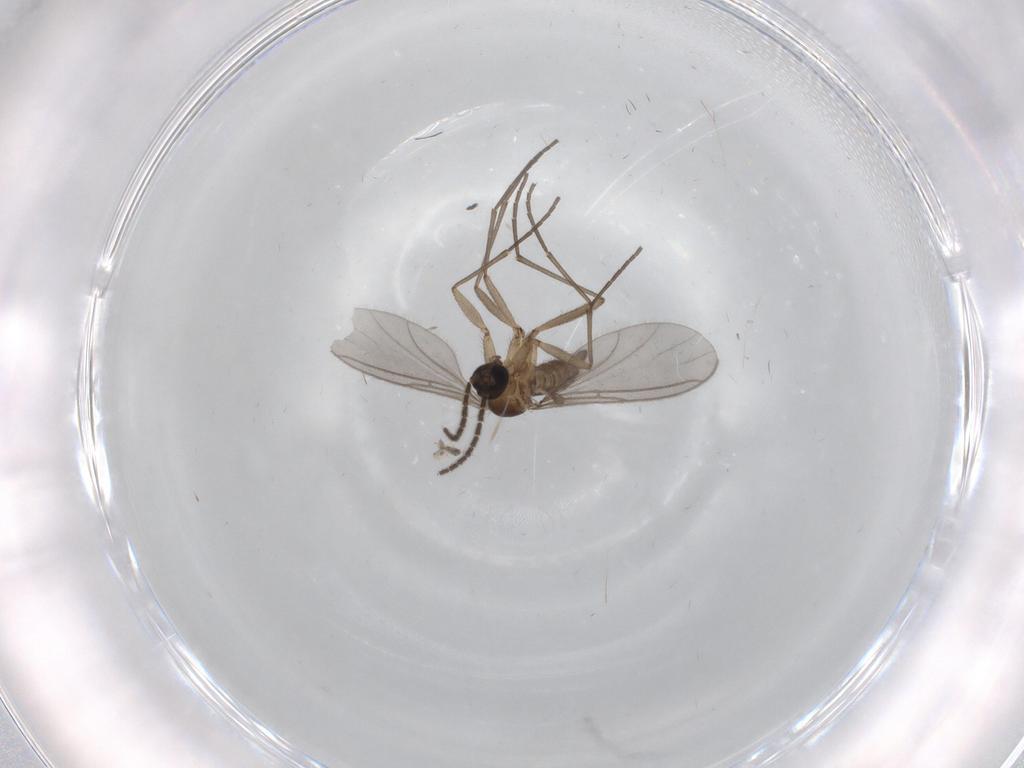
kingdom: Animalia
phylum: Arthropoda
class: Insecta
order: Diptera
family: Sciaridae
